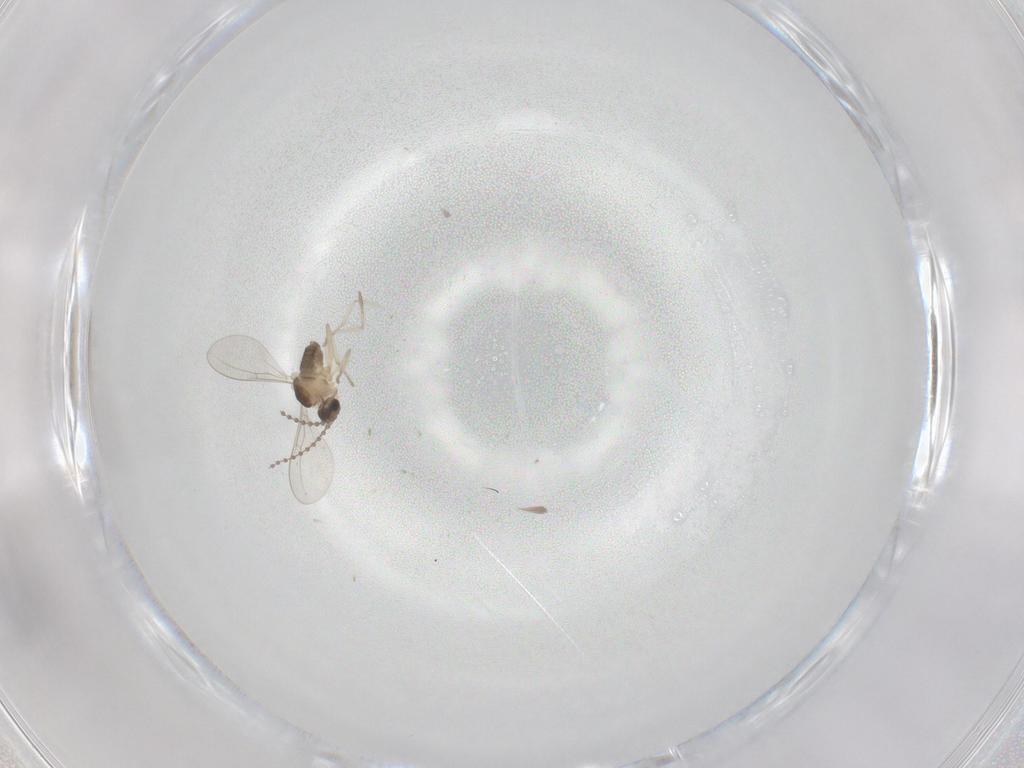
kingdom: Animalia
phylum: Arthropoda
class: Insecta
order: Diptera
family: Cecidomyiidae
